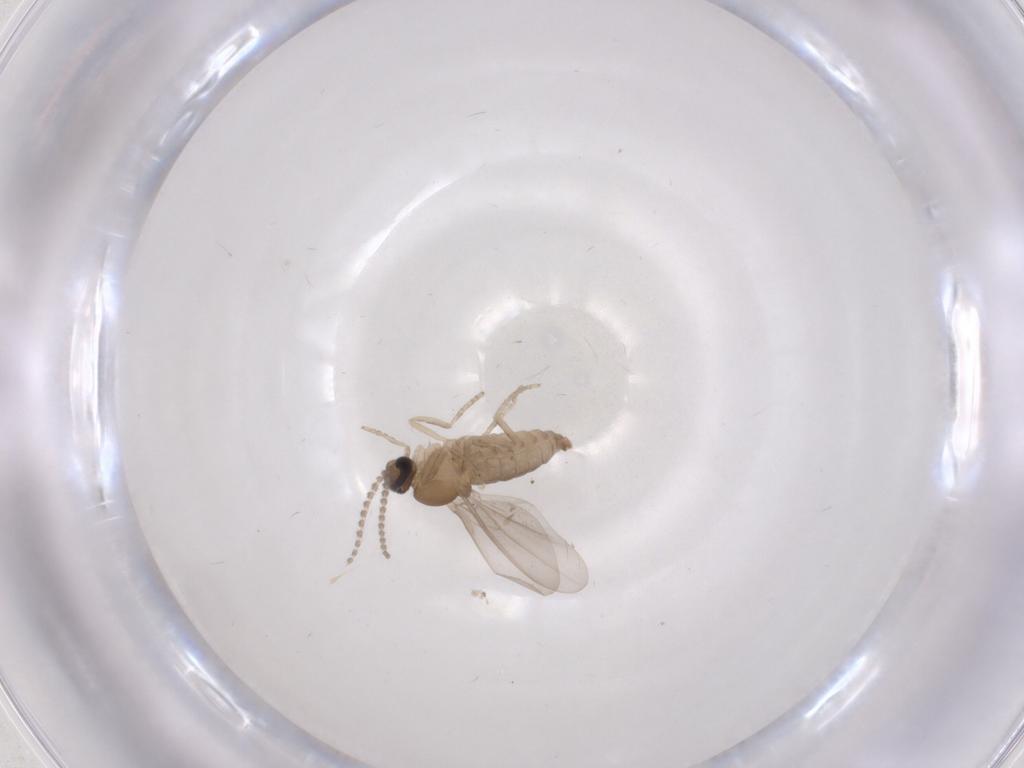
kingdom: Animalia
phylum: Arthropoda
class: Insecta
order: Diptera
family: Cecidomyiidae
